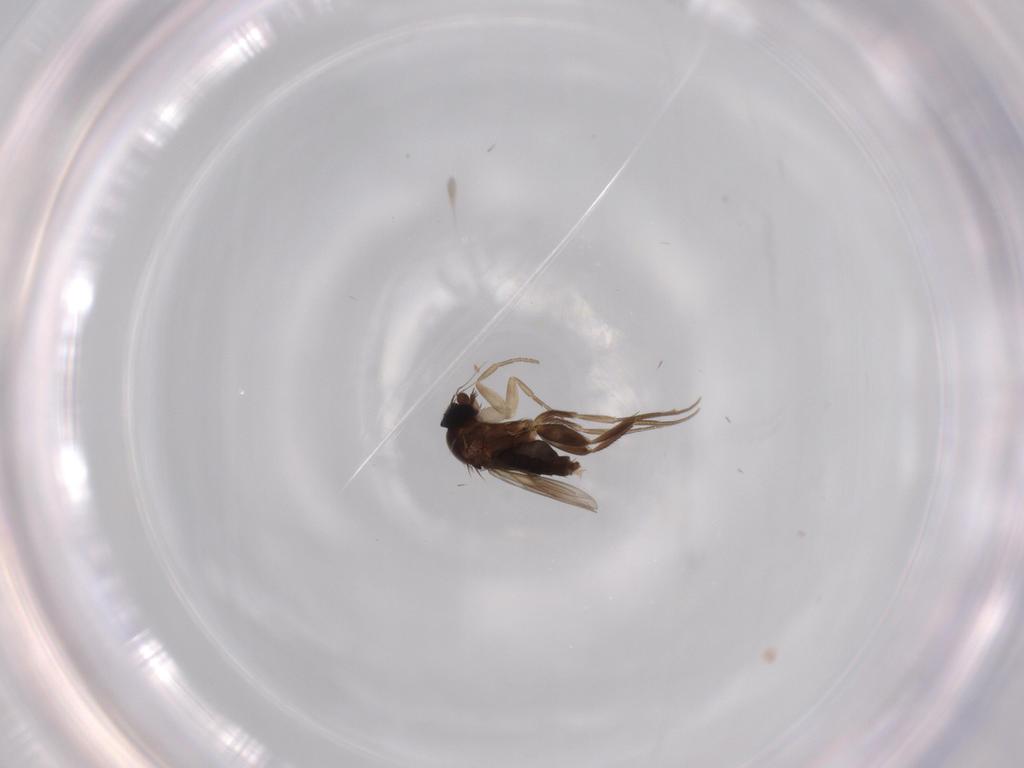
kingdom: Animalia
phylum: Arthropoda
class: Insecta
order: Diptera
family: Phoridae
